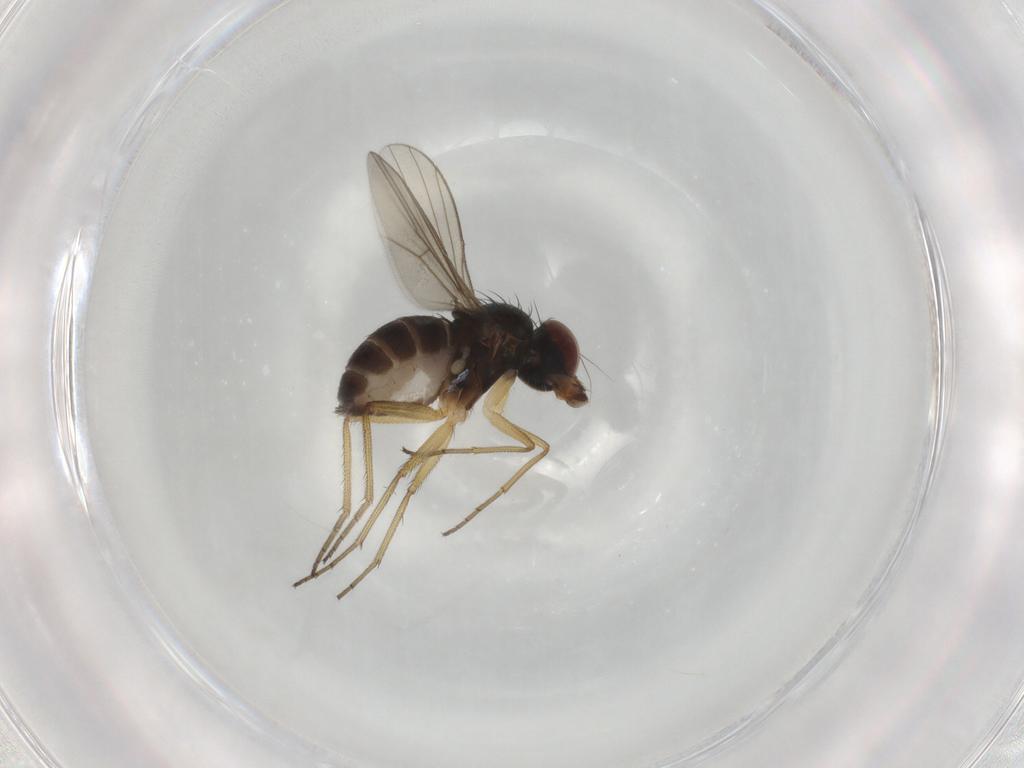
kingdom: Animalia
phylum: Arthropoda
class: Insecta
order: Diptera
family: Dolichopodidae
